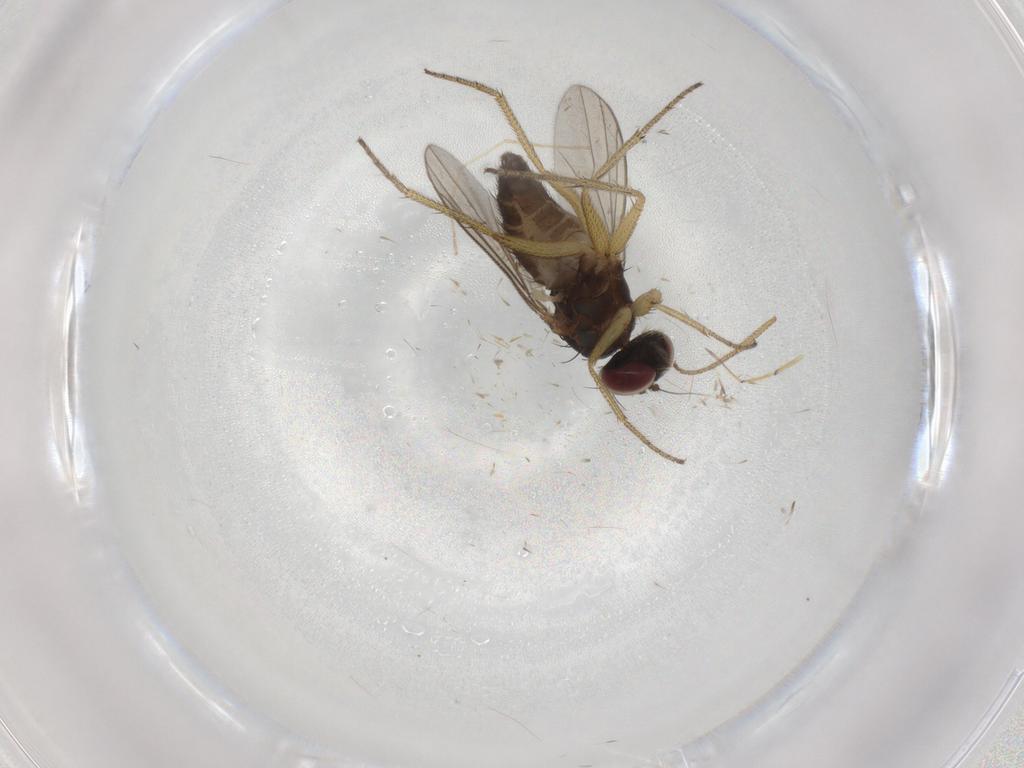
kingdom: Animalia
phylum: Arthropoda
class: Insecta
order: Diptera
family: Dolichopodidae
